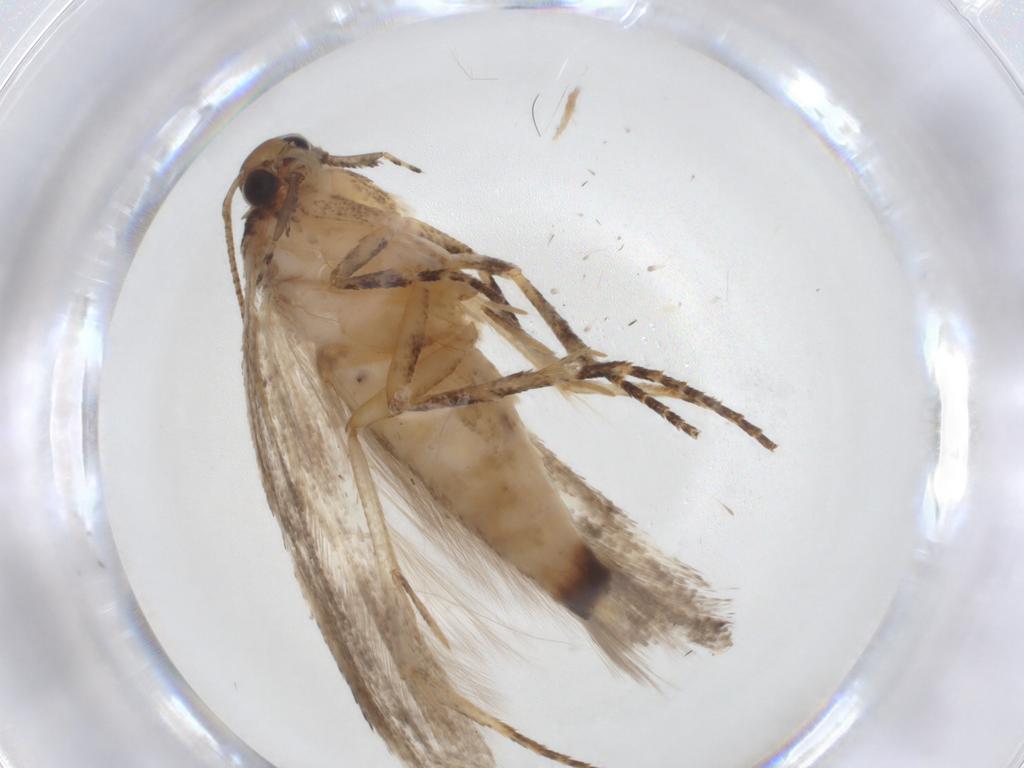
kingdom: Animalia
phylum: Arthropoda
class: Insecta
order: Lepidoptera
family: Gelechiidae
